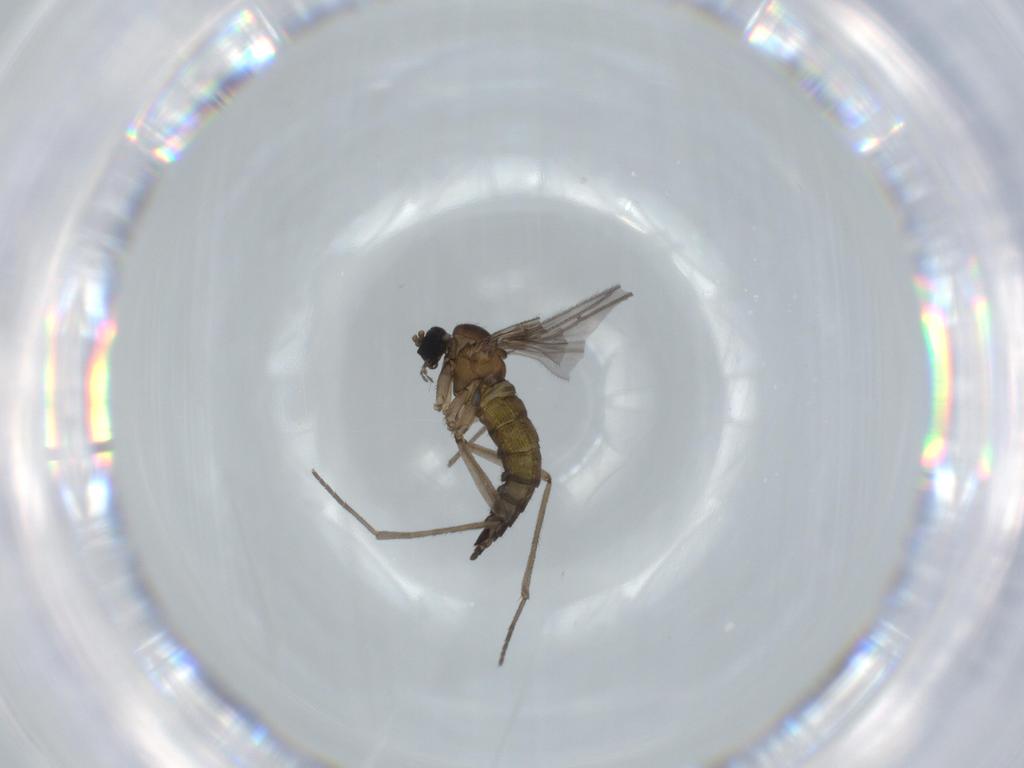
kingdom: Animalia
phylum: Arthropoda
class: Insecta
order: Diptera
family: Sciaridae
